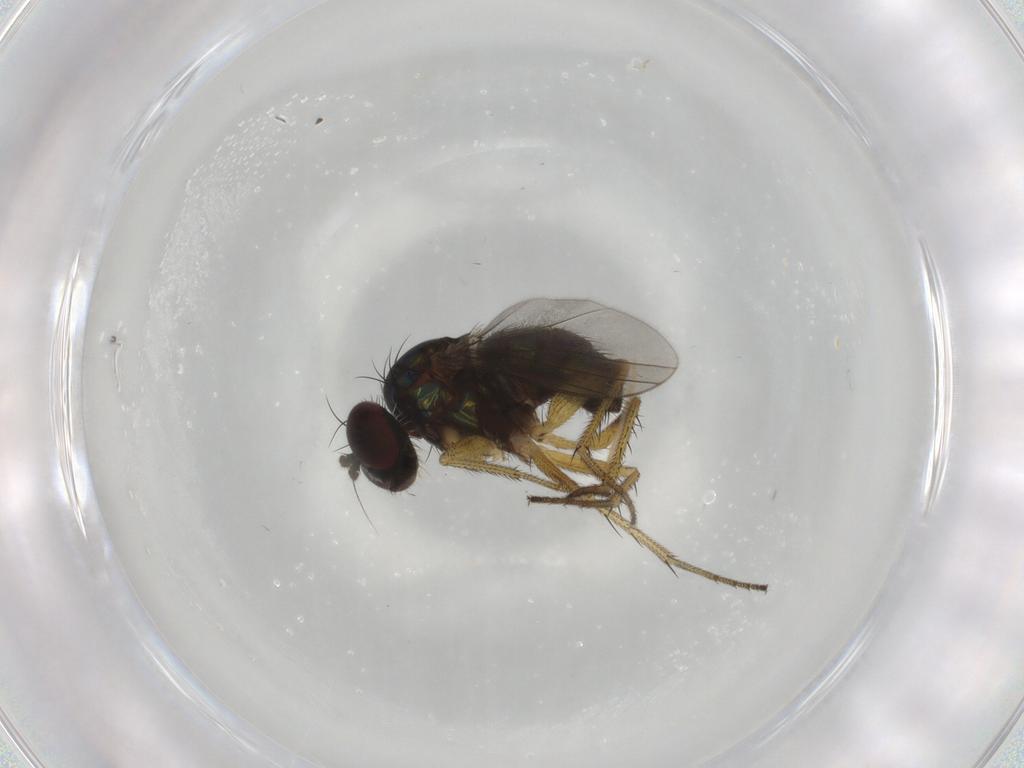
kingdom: Animalia
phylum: Arthropoda
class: Insecta
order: Diptera
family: Dolichopodidae
